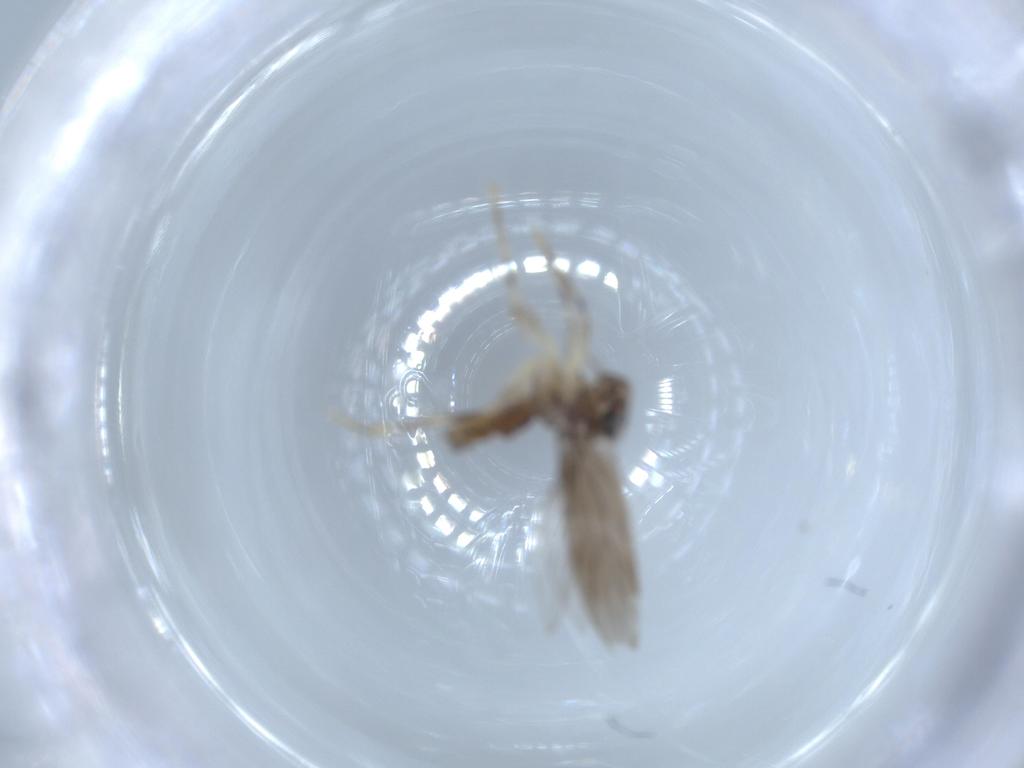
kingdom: Animalia
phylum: Arthropoda
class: Insecta
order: Psocodea
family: Lepidopsocidae
